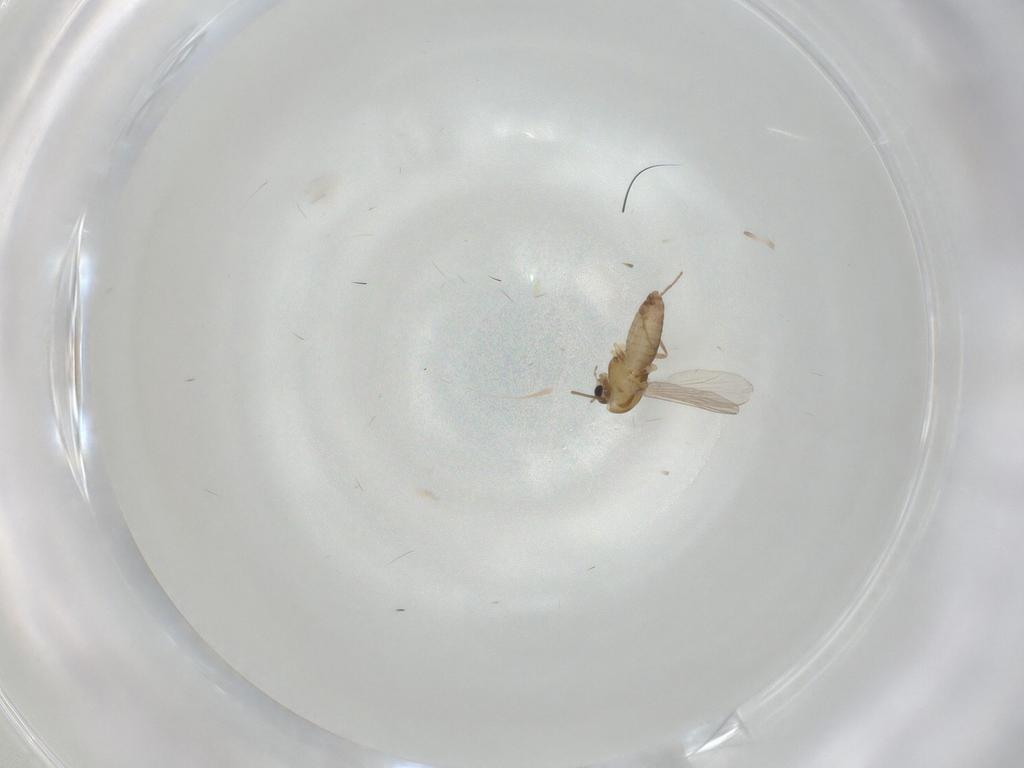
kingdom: Animalia
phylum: Arthropoda
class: Insecta
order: Diptera
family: Chironomidae
